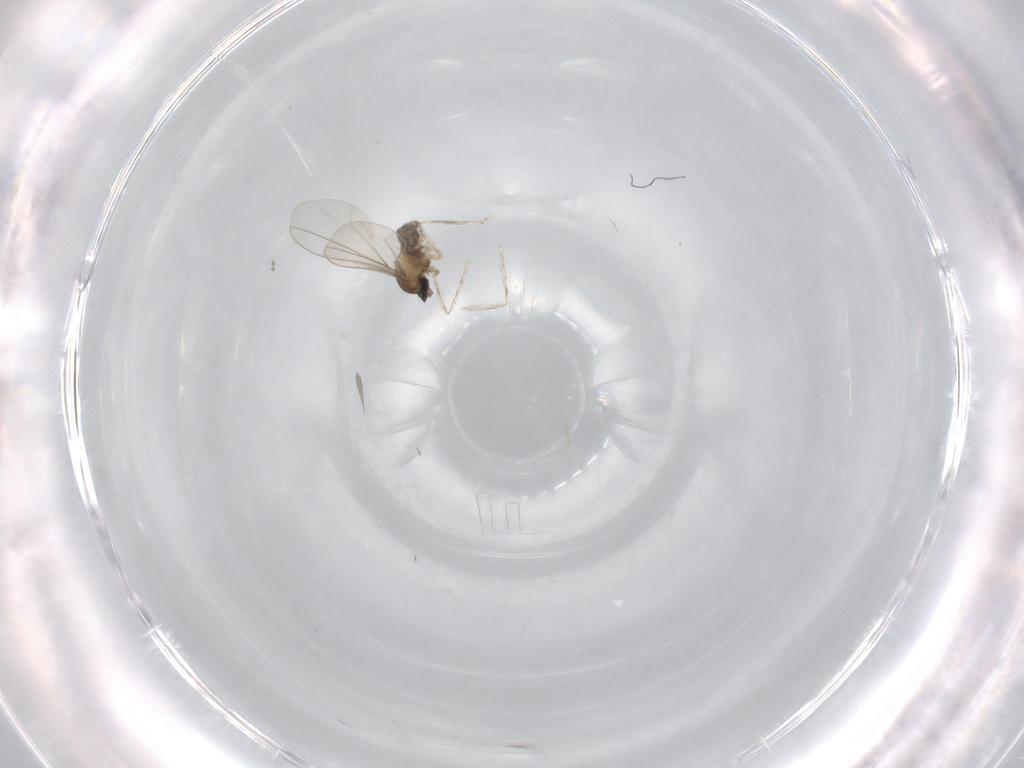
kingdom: Animalia
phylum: Arthropoda
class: Insecta
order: Diptera
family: Cecidomyiidae
